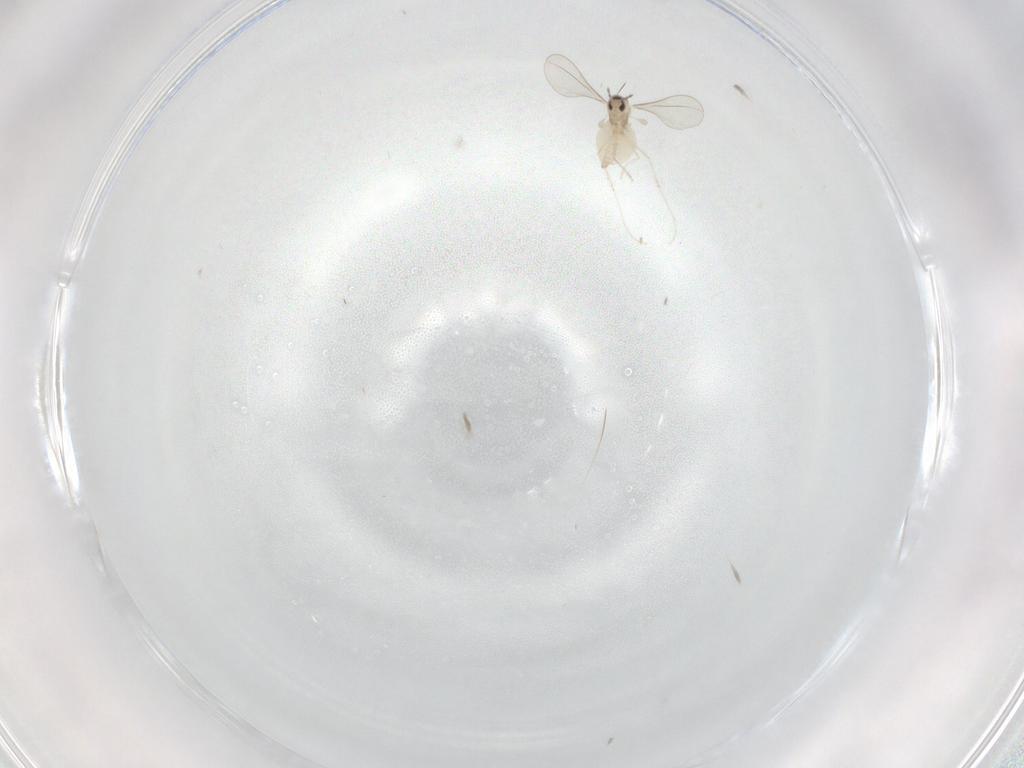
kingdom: Animalia
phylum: Arthropoda
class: Insecta
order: Diptera
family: Cecidomyiidae
